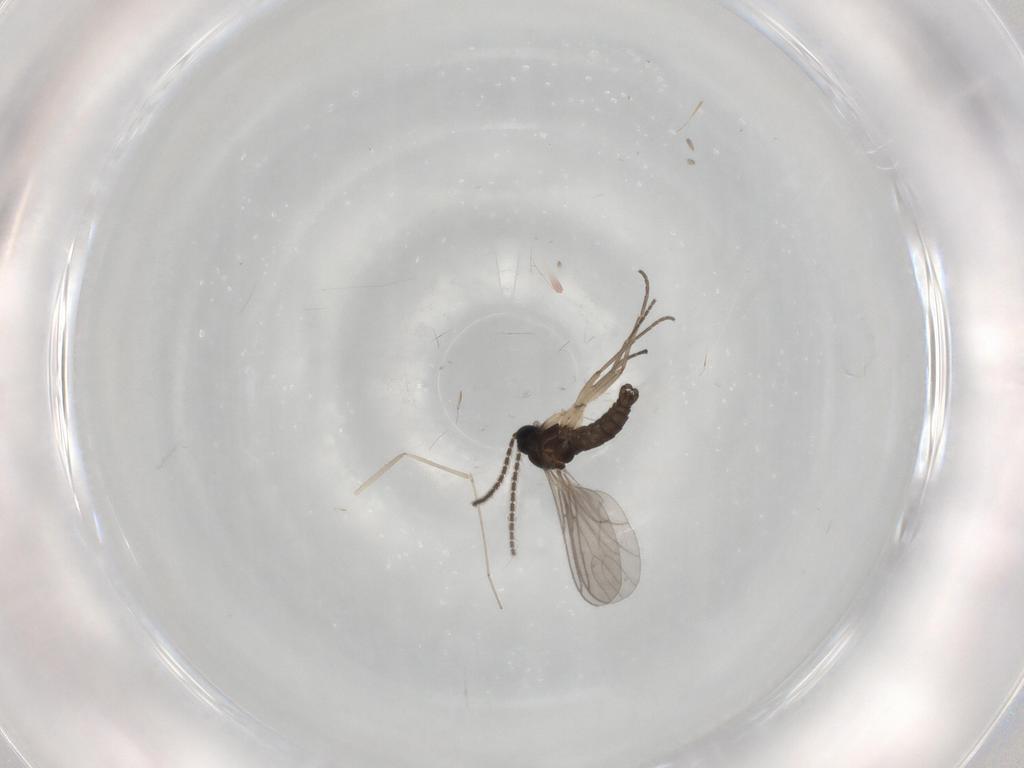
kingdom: Animalia
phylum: Arthropoda
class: Insecta
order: Diptera
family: Sciaridae
